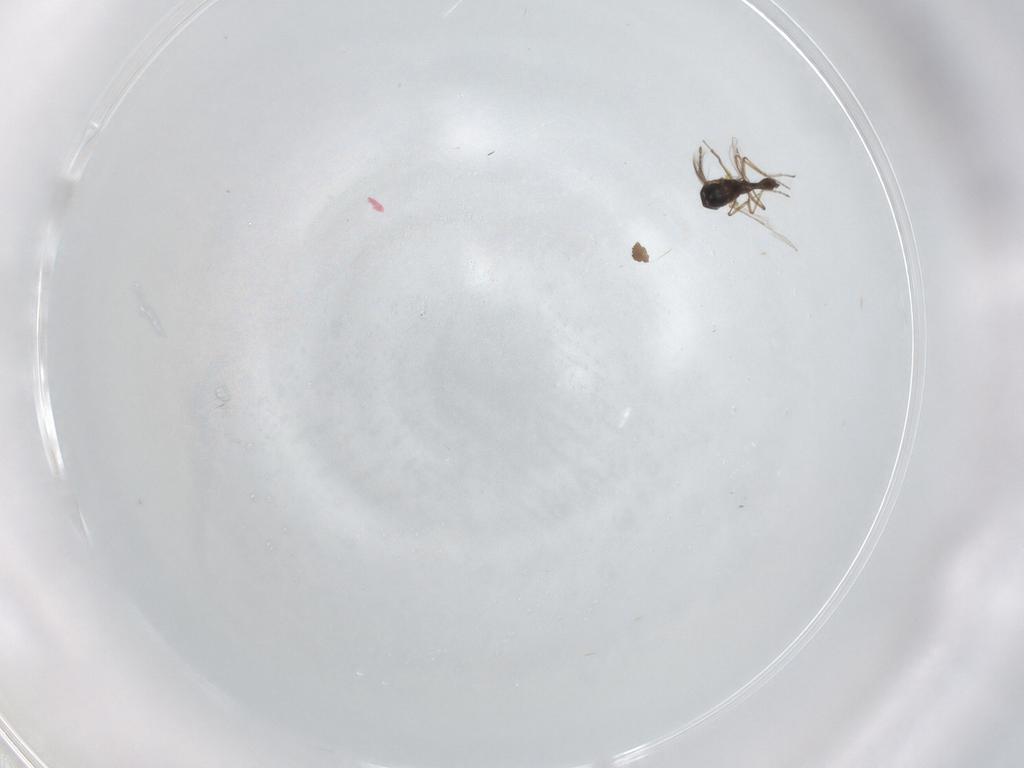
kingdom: Animalia
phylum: Arthropoda
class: Insecta
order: Diptera
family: Ceratopogonidae
